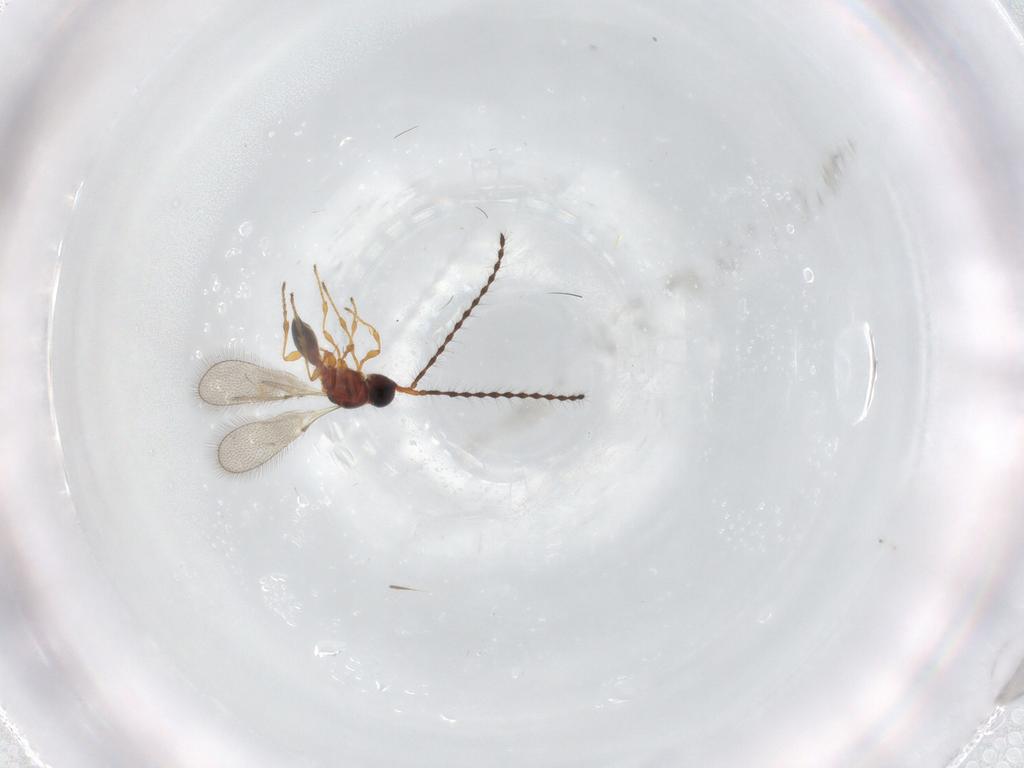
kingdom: Animalia
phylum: Arthropoda
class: Insecta
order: Hymenoptera
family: Diapriidae
